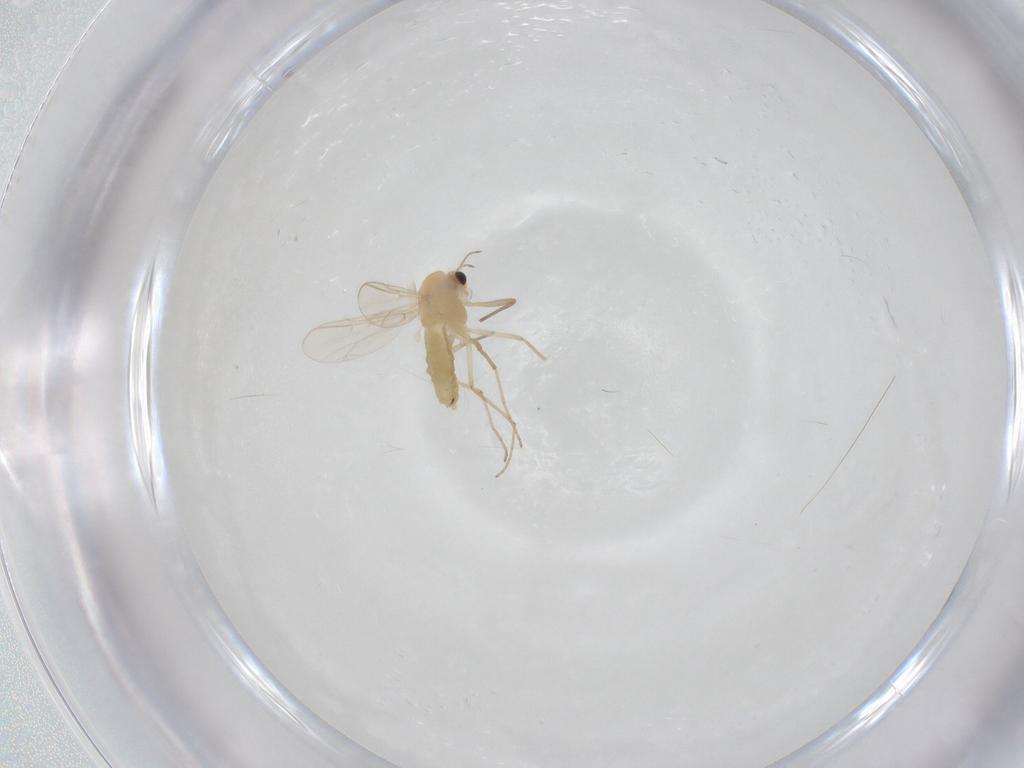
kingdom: Animalia
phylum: Arthropoda
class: Insecta
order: Diptera
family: Chironomidae
